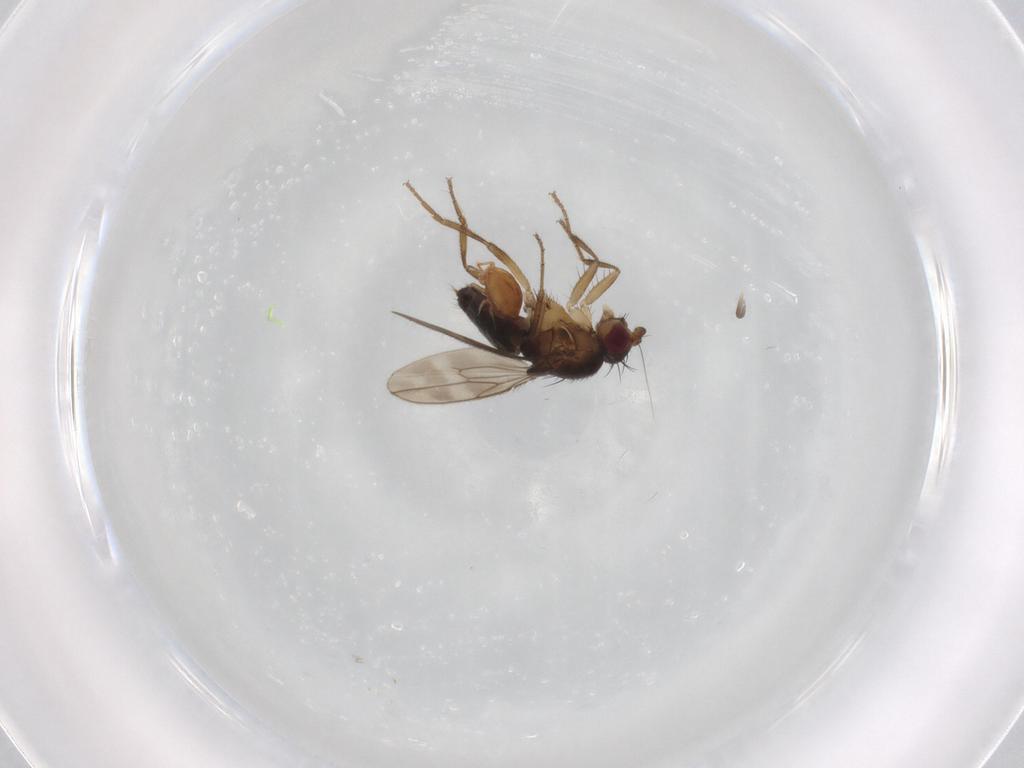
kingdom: Animalia
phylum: Arthropoda
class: Insecta
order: Diptera
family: Sphaeroceridae
